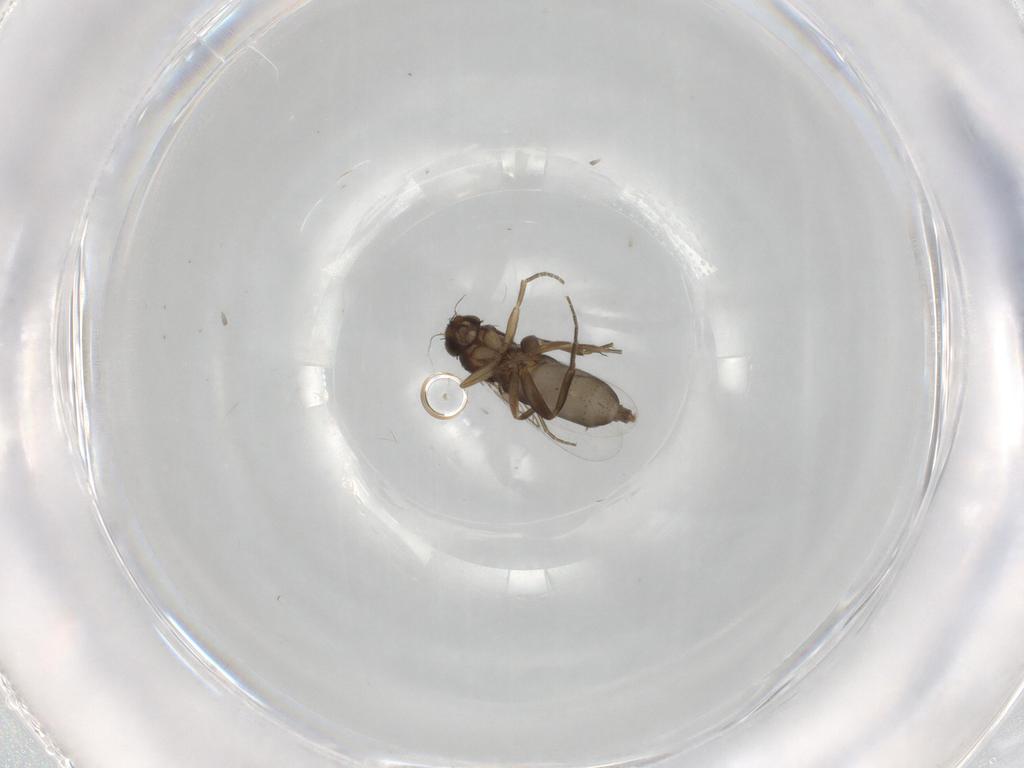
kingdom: Animalia
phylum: Arthropoda
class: Insecta
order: Diptera
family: Phoridae
